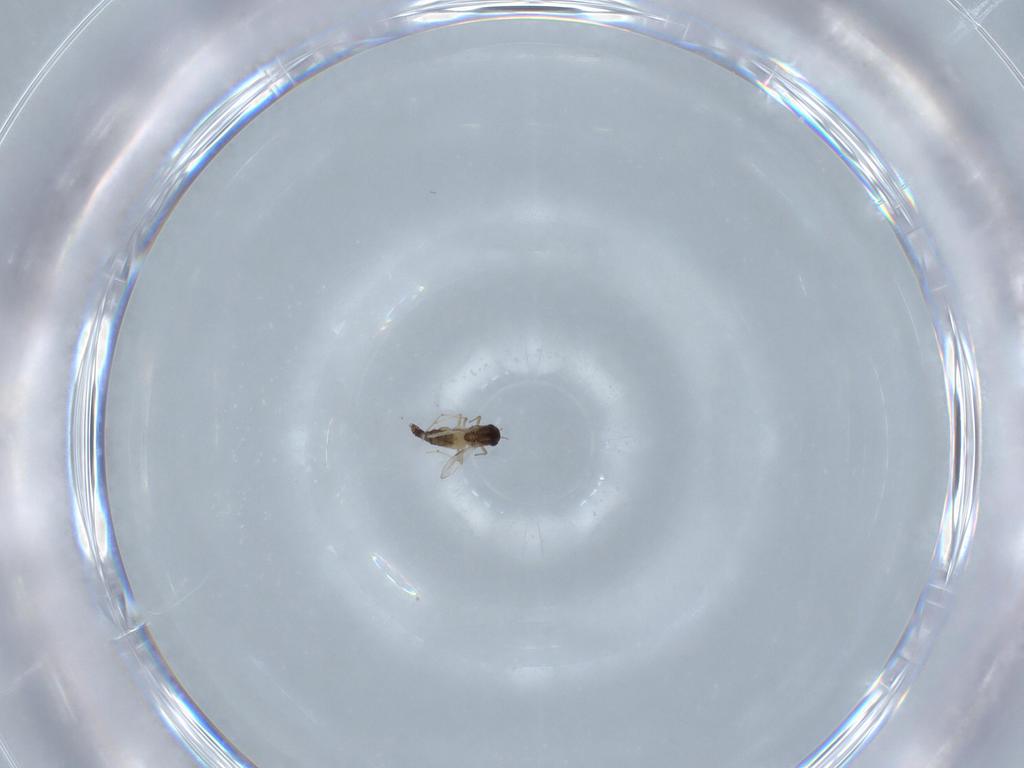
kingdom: Animalia
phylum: Arthropoda
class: Insecta
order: Diptera
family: Chironomidae
